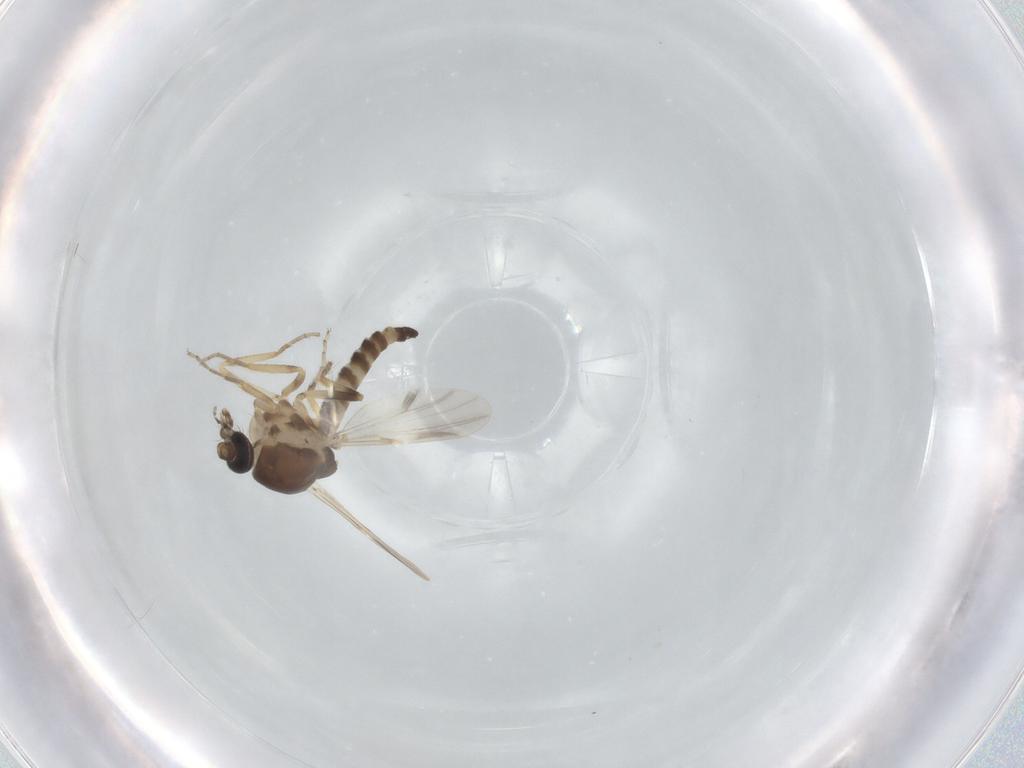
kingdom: Animalia
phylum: Arthropoda
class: Insecta
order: Diptera
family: Ceratopogonidae
